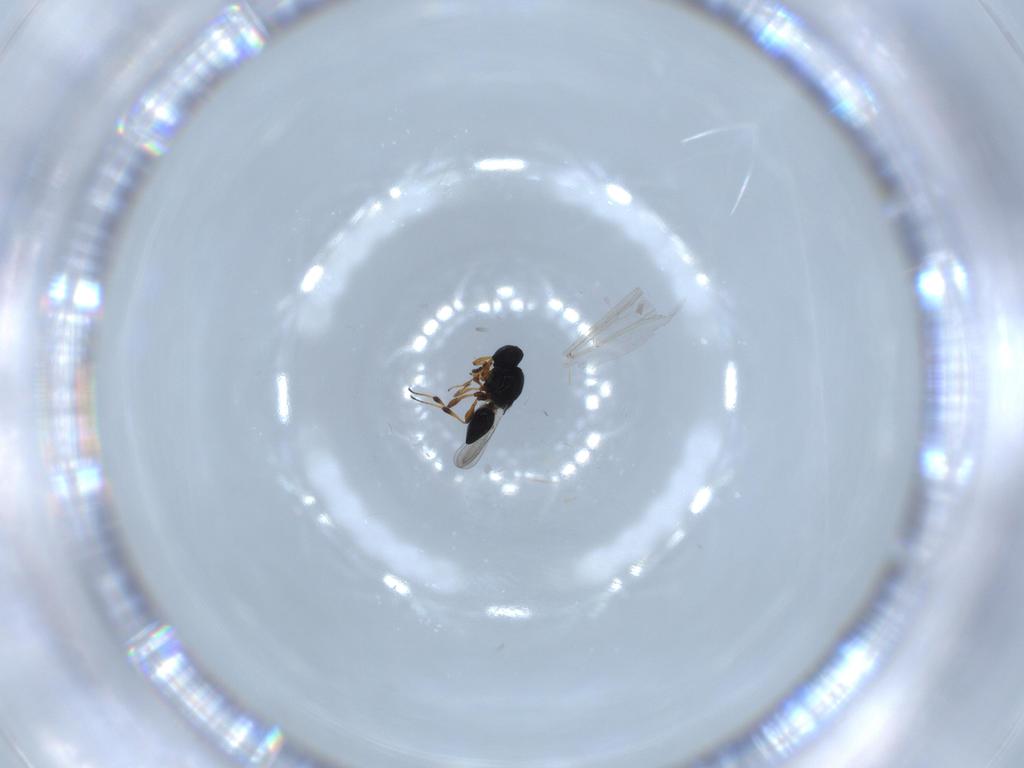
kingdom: Animalia
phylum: Arthropoda
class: Insecta
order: Hymenoptera
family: Formicidae
